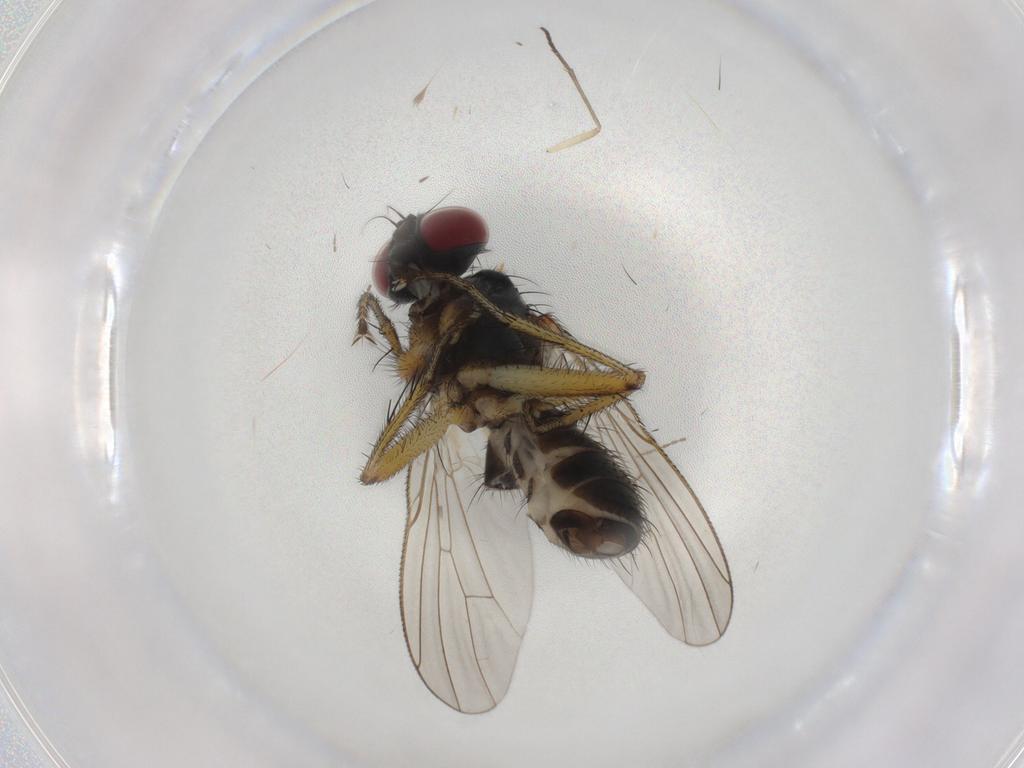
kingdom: Animalia
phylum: Arthropoda
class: Insecta
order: Diptera
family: Muscidae
